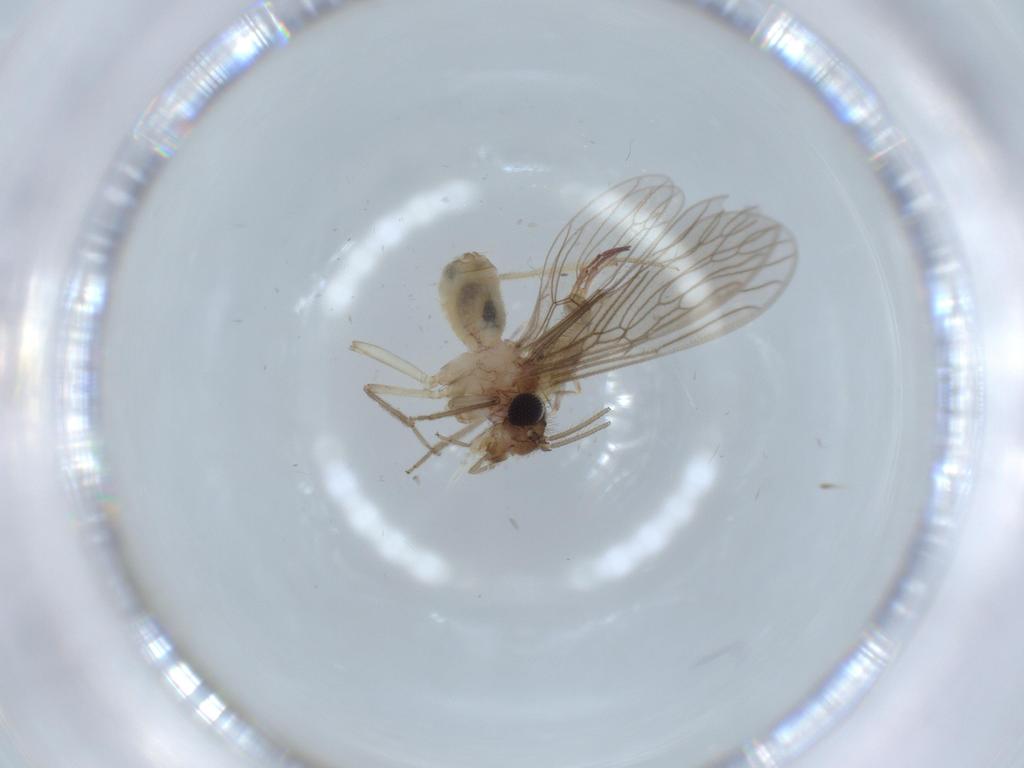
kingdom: Animalia
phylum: Arthropoda
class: Insecta
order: Psocodea
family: Cladiopsocidae
